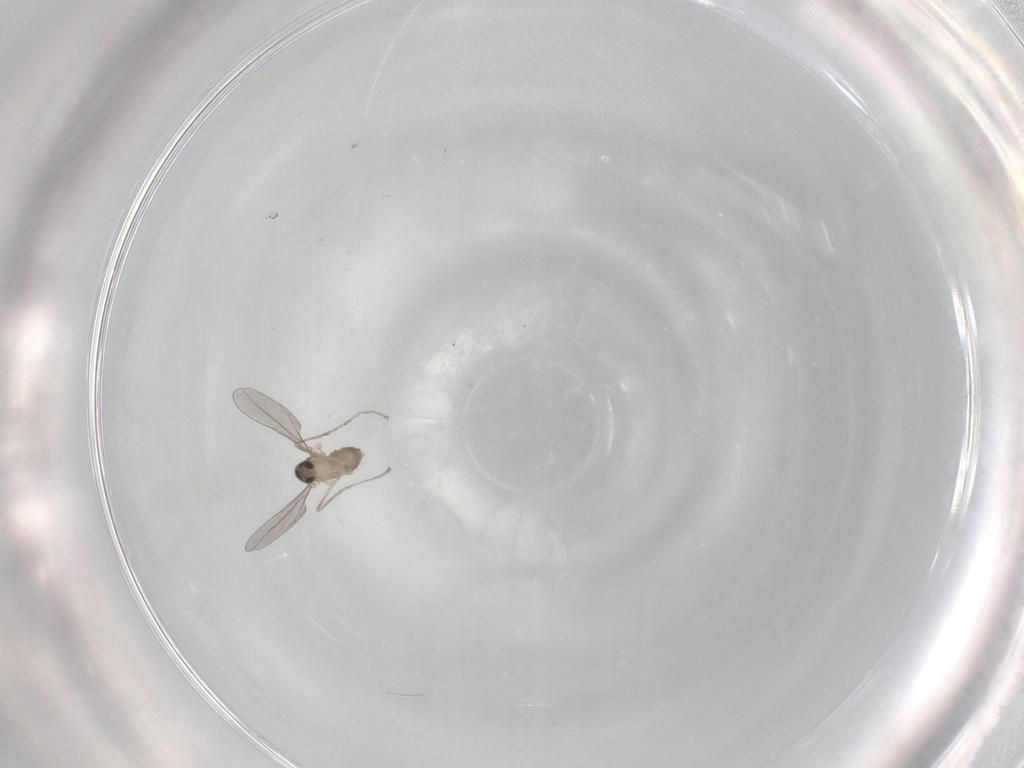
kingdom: Animalia
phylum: Arthropoda
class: Insecta
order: Diptera
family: Cecidomyiidae
